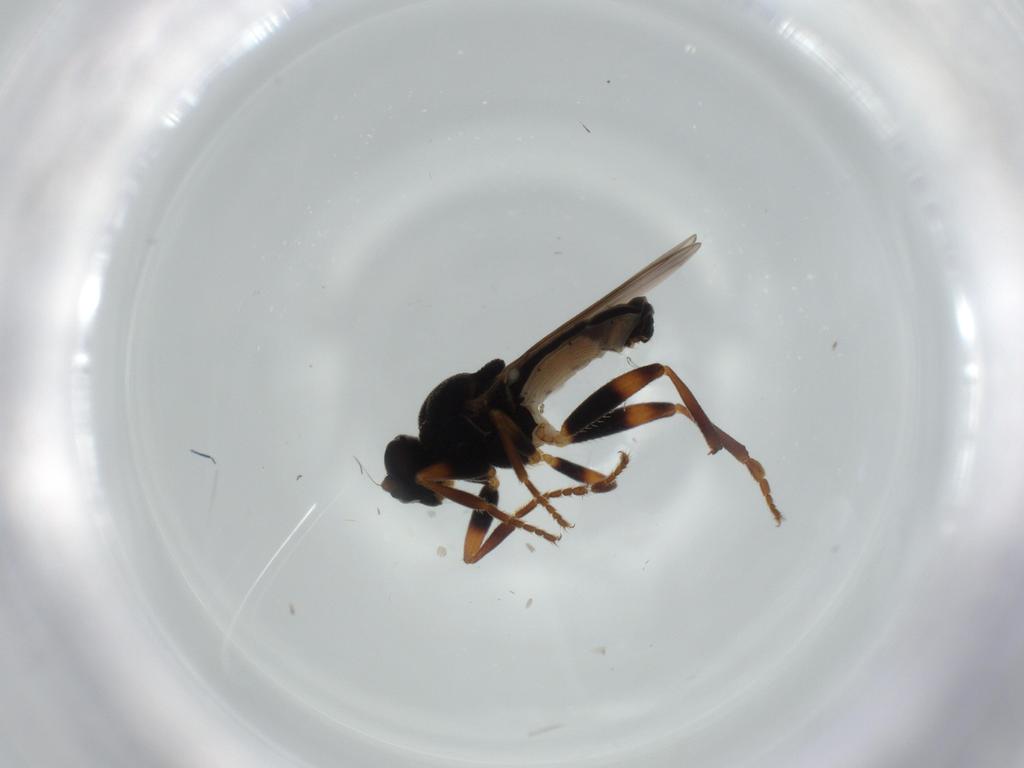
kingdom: Animalia
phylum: Arthropoda
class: Insecta
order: Diptera
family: Sphaeroceridae
